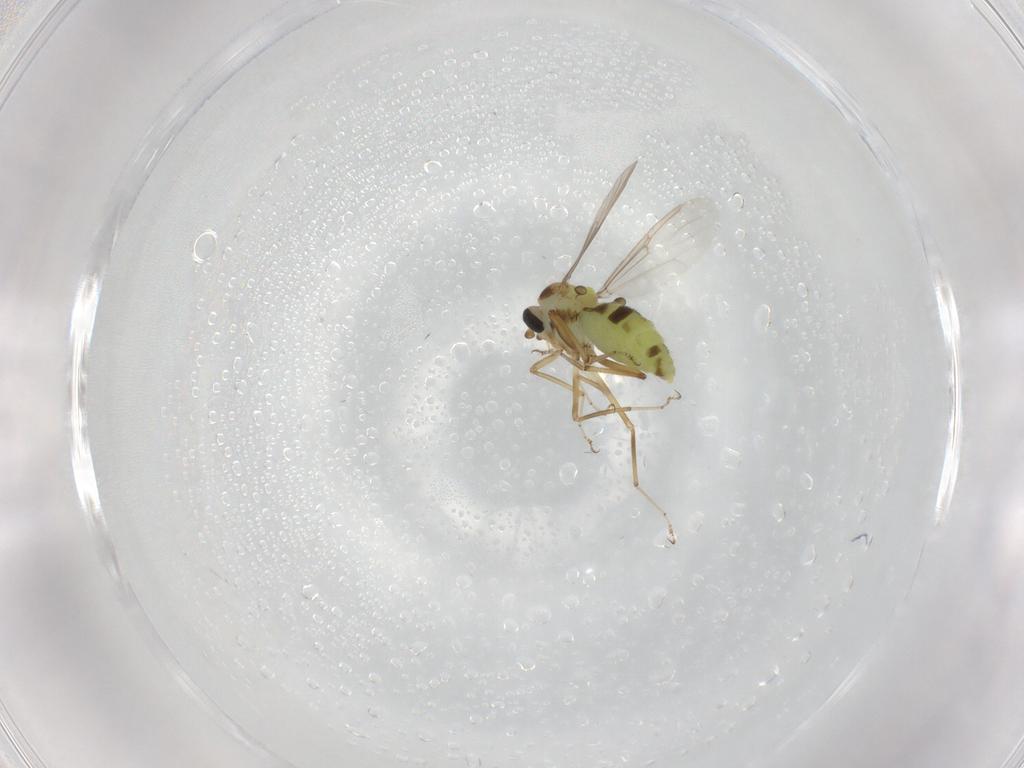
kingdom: Animalia
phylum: Arthropoda
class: Insecta
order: Diptera
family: Ceratopogonidae
